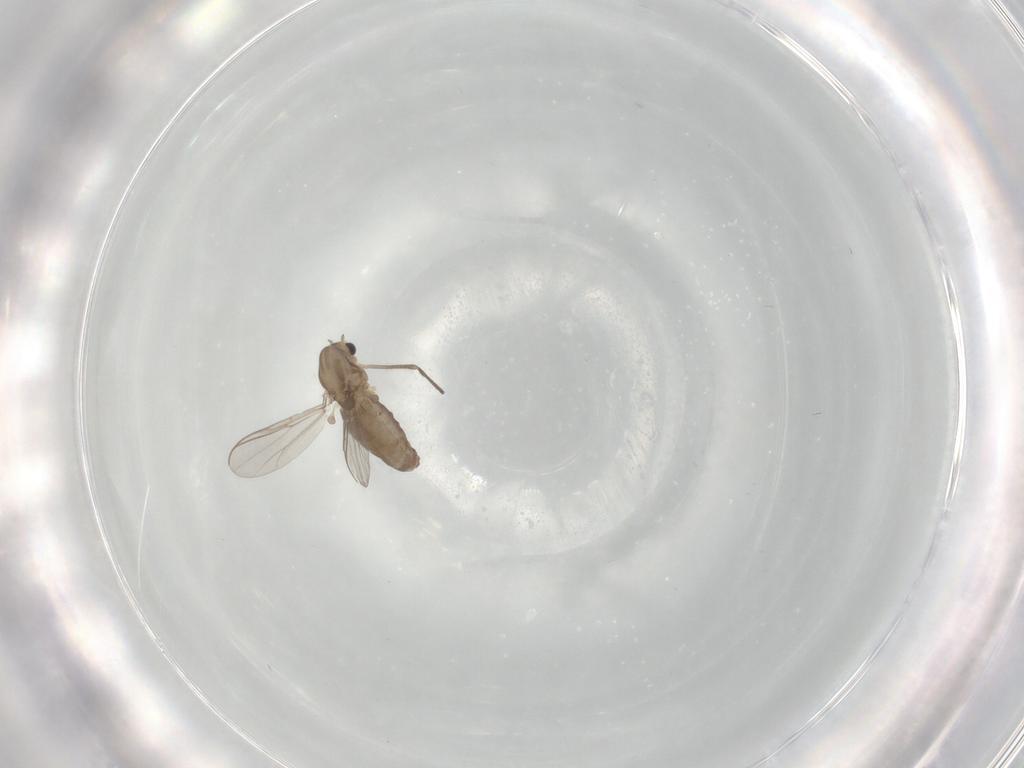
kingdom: Animalia
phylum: Arthropoda
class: Insecta
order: Diptera
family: Chironomidae
